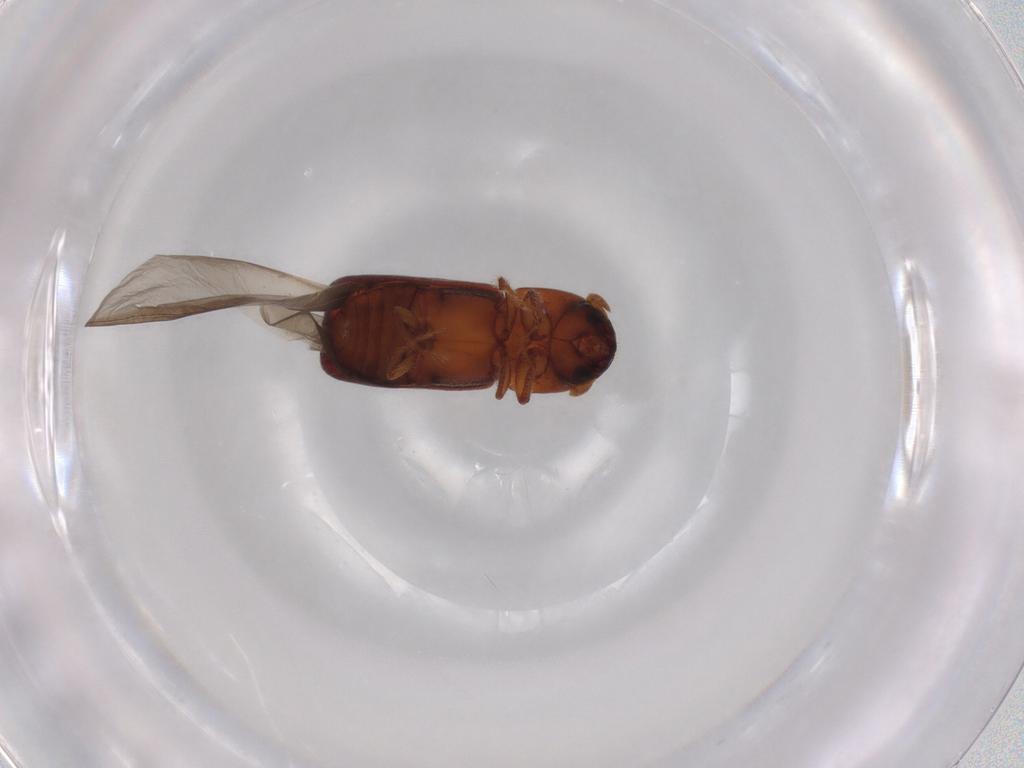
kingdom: Animalia
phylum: Arthropoda
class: Insecta
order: Coleoptera
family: Curculionidae
